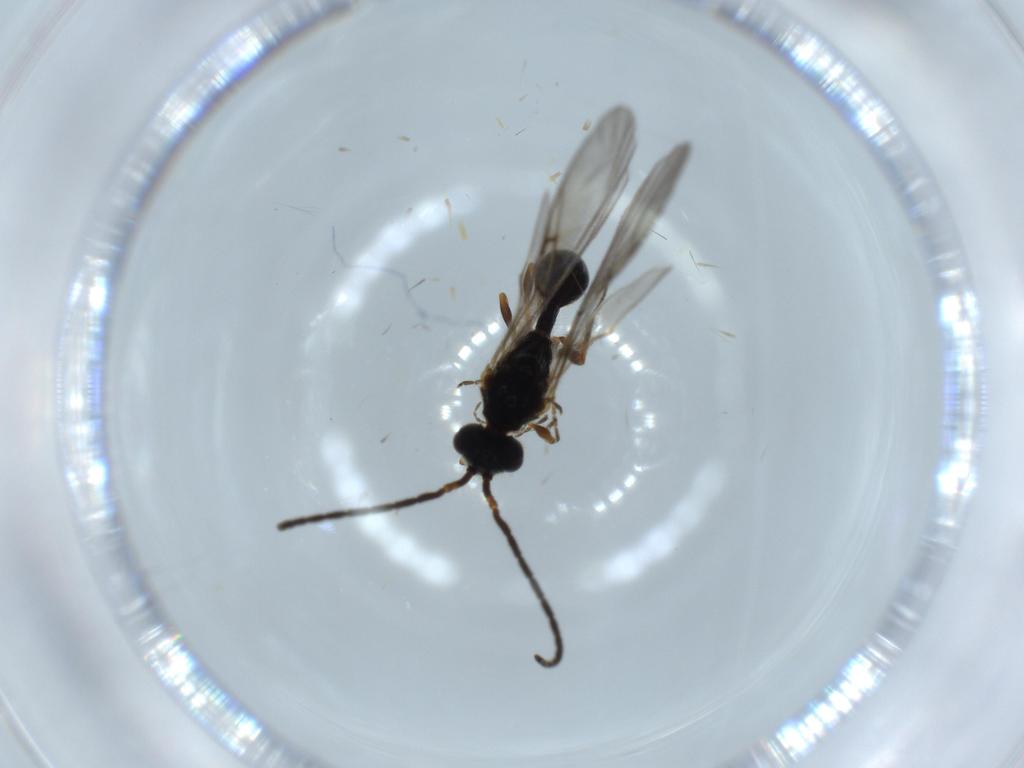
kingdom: Animalia
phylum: Arthropoda
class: Insecta
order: Hymenoptera
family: Diapriidae
